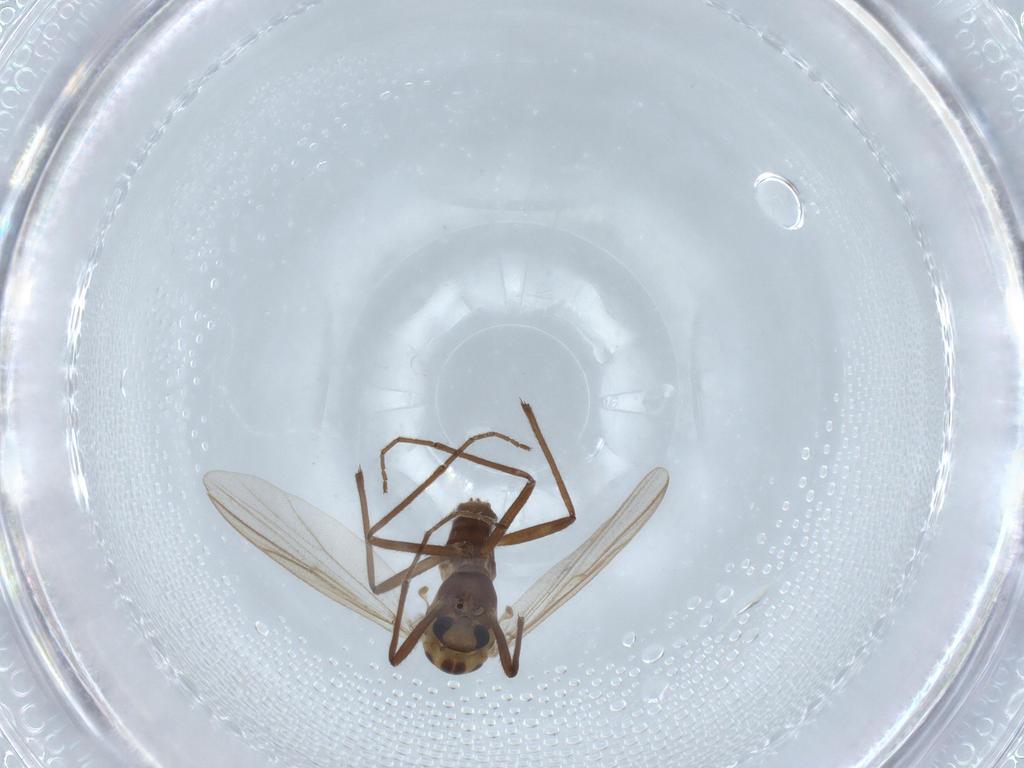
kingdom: Animalia
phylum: Arthropoda
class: Insecta
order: Diptera
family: Chironomidae
